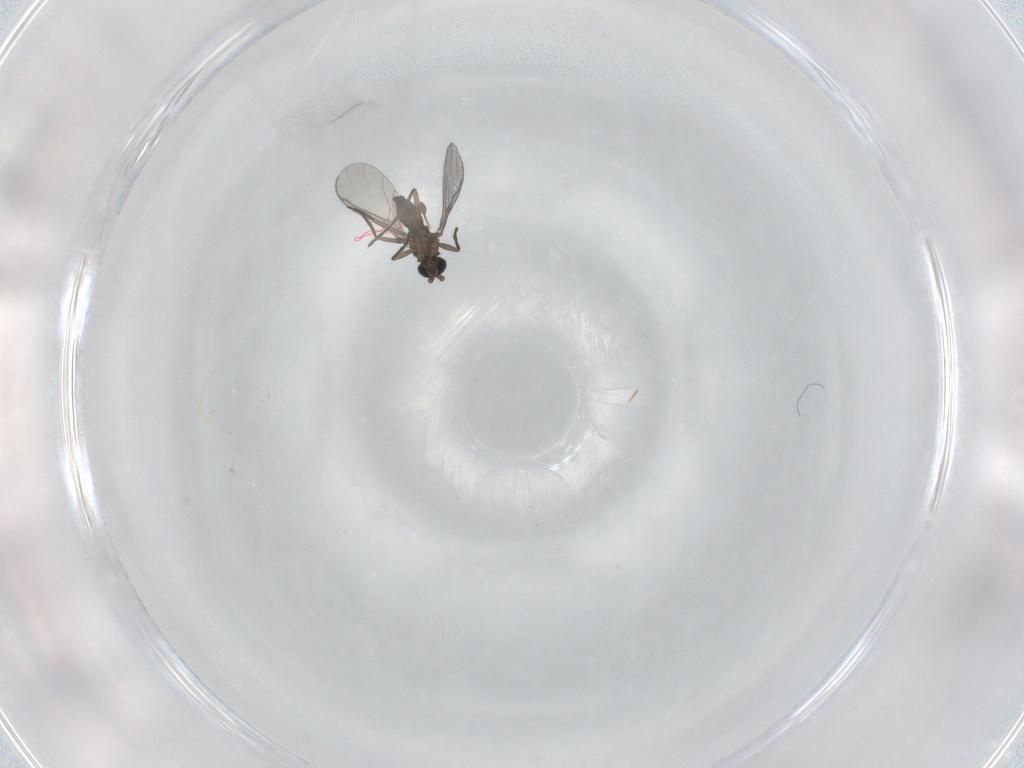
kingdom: Animalia
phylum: Arthropoda
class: Insecta
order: Diptera
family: Sciaridae
